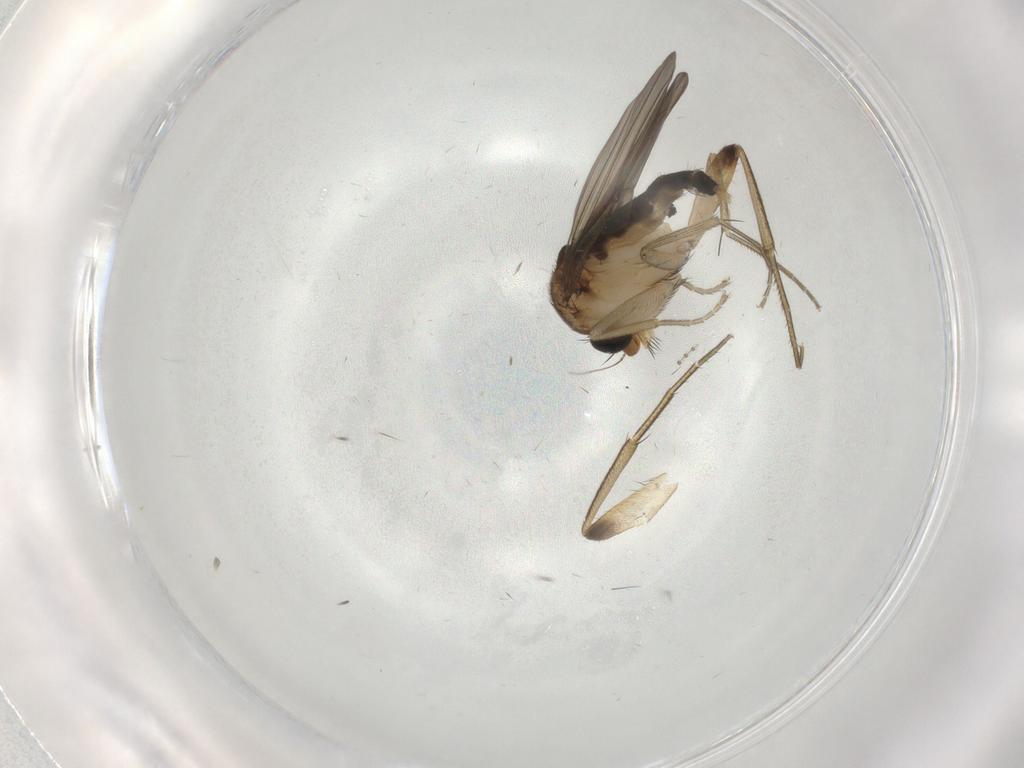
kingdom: Animalia
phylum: Arthropoda
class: Insecta
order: Diptera
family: Phoridae
